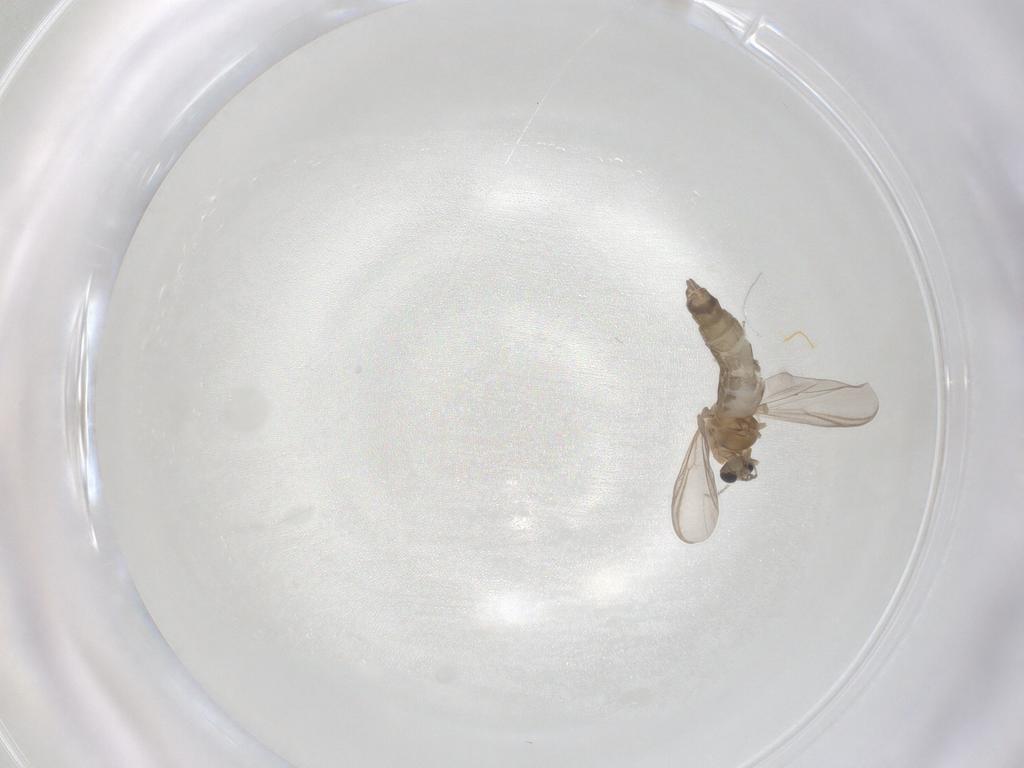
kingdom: Animalia
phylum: Arthropoda
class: Insecta
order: Diptera
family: Chironomidae
